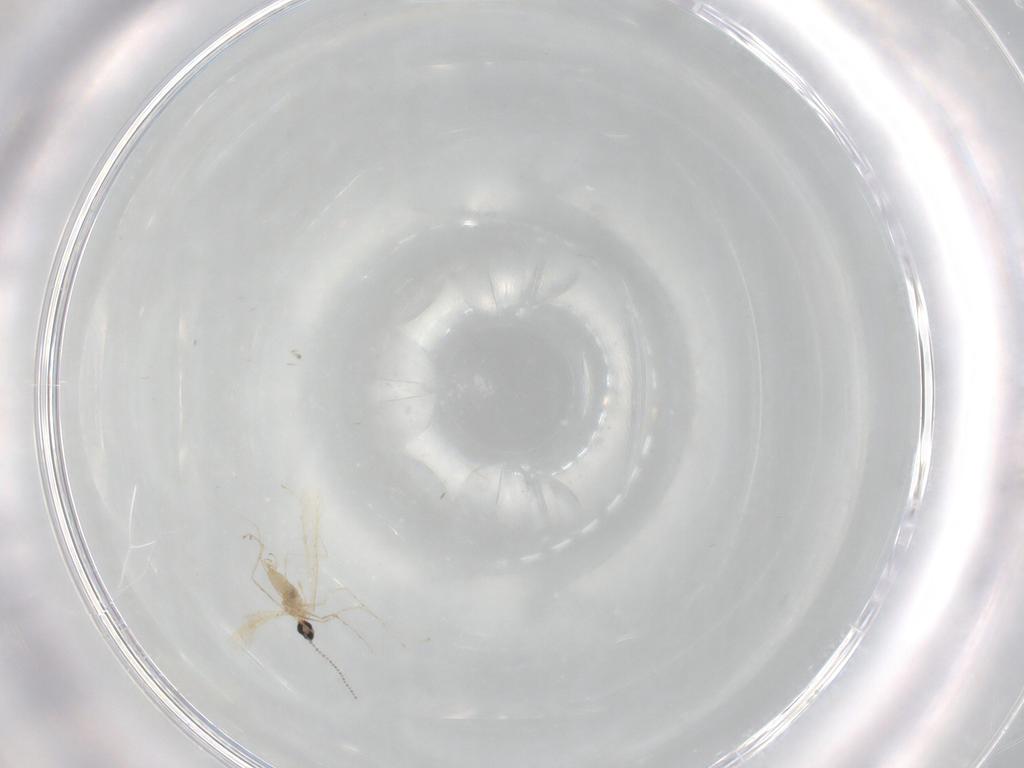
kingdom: Animalia
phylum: Arthropoda
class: Insecta
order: Diptera
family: Cecidomyiidae
